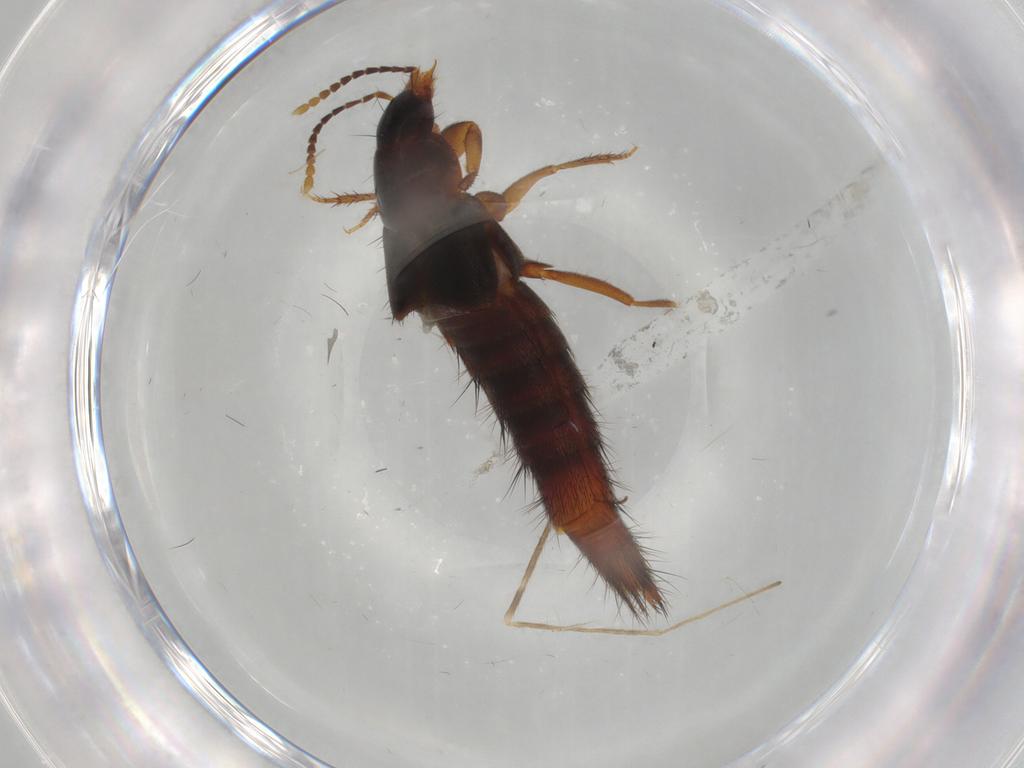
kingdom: Animalia
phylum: Arthropoda
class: Insecta
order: Coleoptera
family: Staphylinidae
